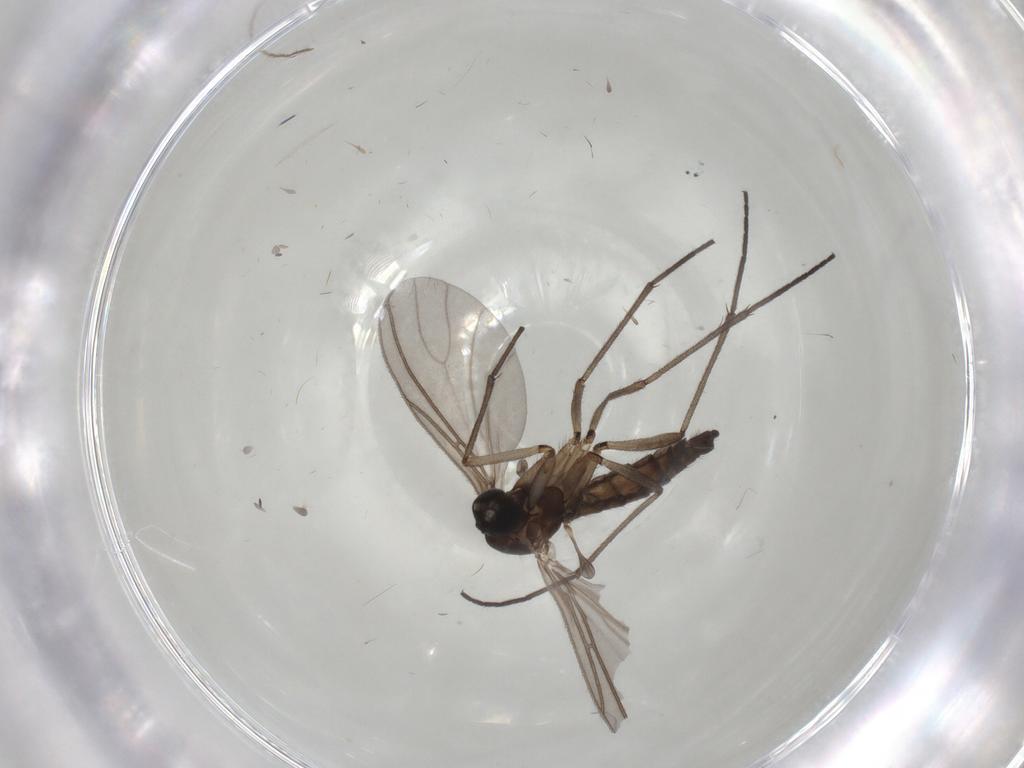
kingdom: Animalia
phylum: Arthropoda
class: Insecta
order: Diptera
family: Chironomidae
